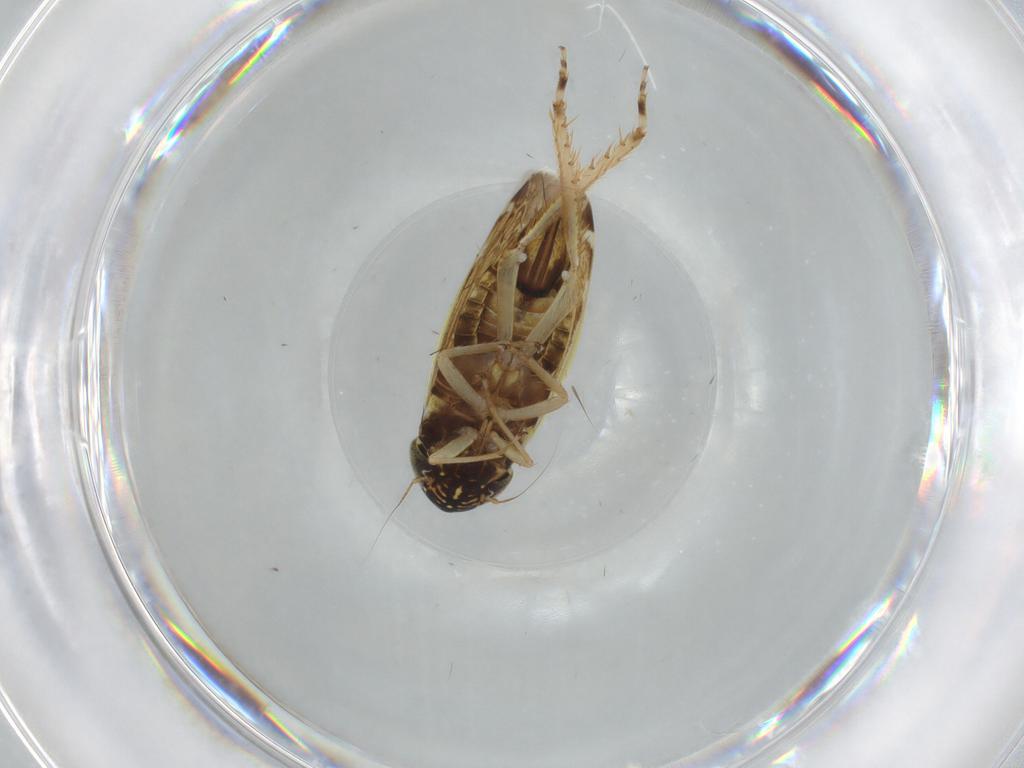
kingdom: Animalia
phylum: Arthropoda
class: Insecta
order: Hemiptera
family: Cicadellidae
